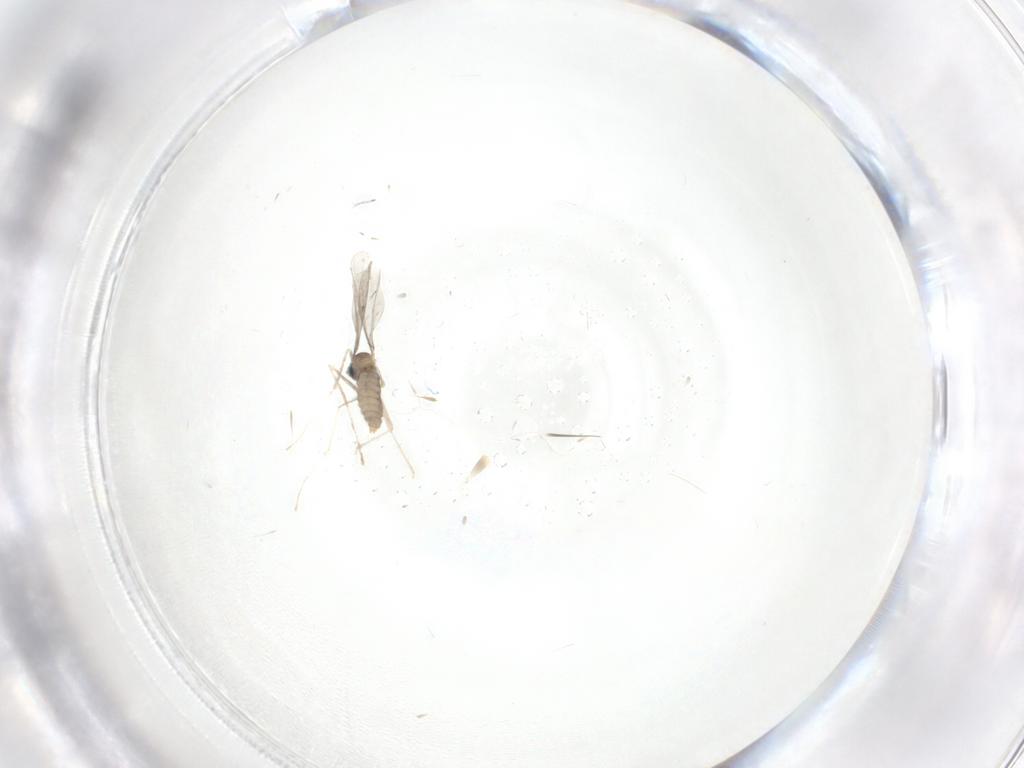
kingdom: Animalia
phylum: Arthropoda
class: Insecta
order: Diptera
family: Cecidomyiidae
